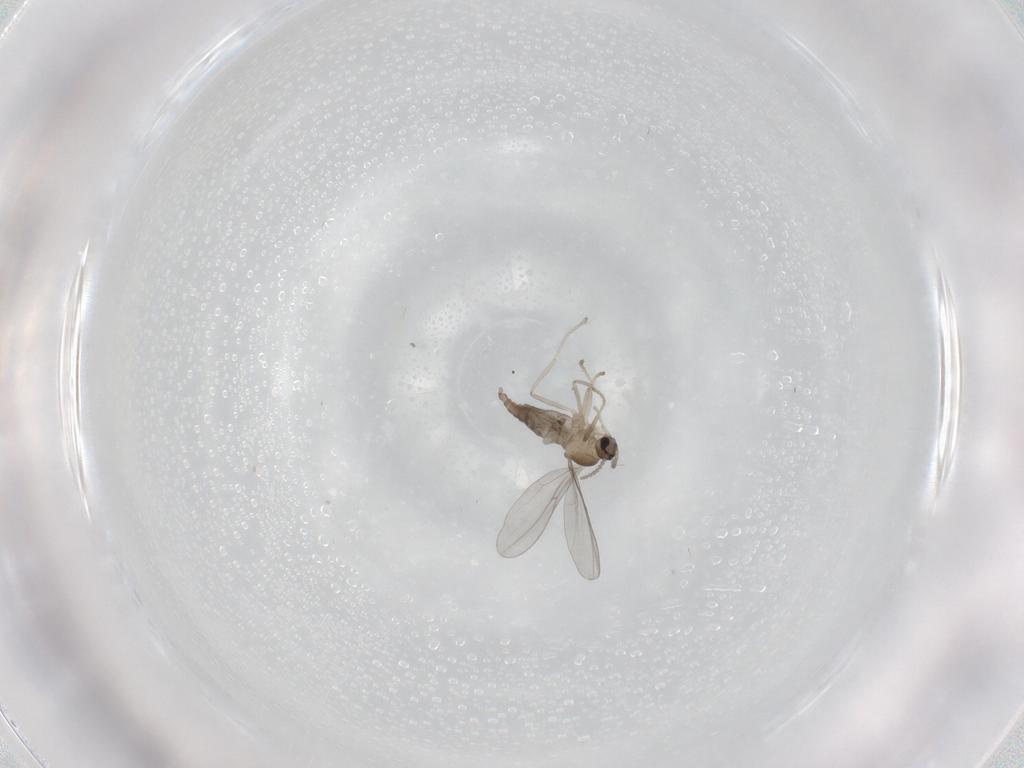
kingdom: Animalia
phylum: Arthropoda
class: Insecta
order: Diptera
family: Cecidomyiidae
